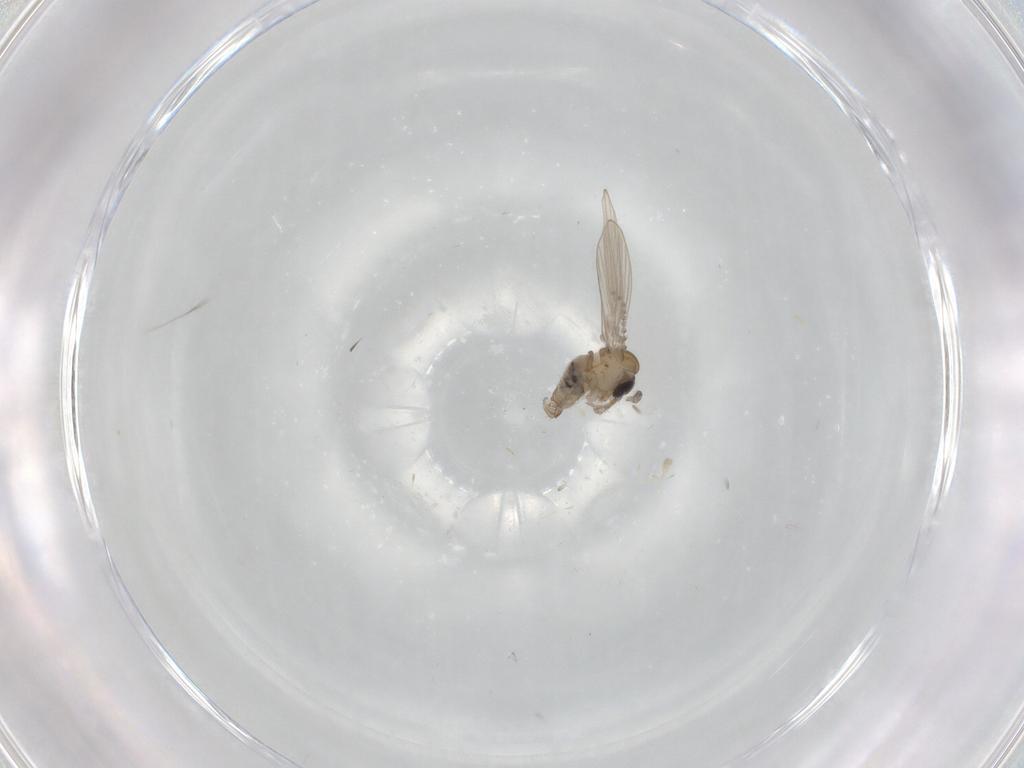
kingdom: Animalia
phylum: Arthropoda
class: Insecta
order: Diptera
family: Psychodidae
